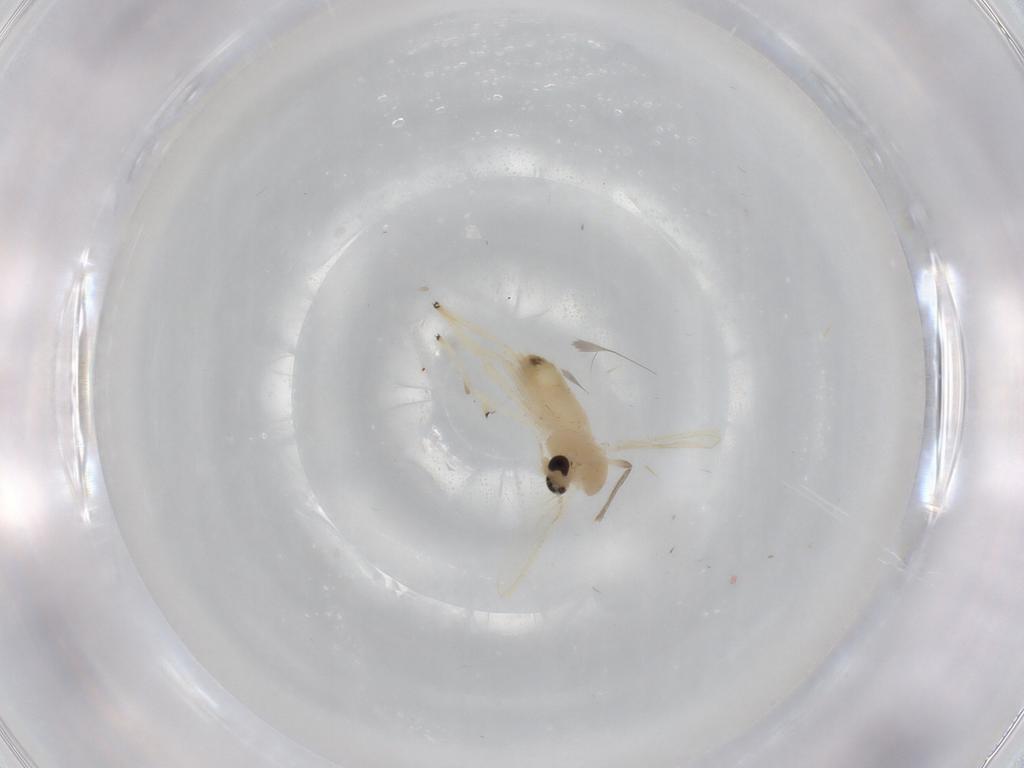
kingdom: Animalia
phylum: Arthropoda
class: Insecta
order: Diptera
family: Chironomidae
